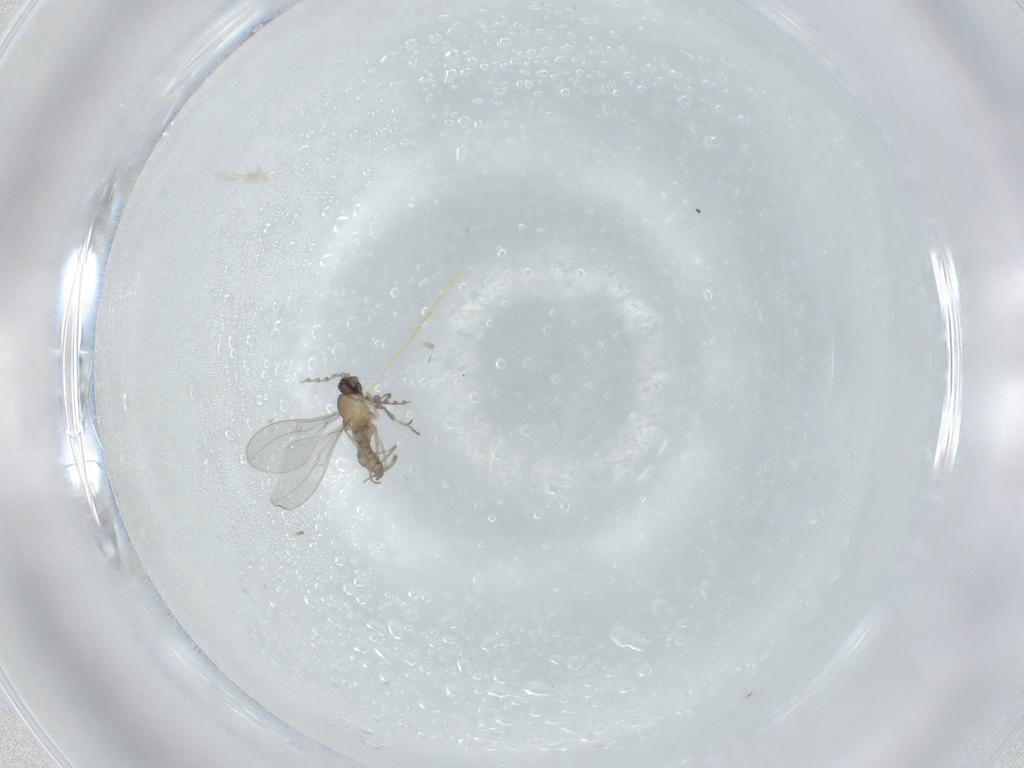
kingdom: Animalia
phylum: Arthropoda
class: Insecta
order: Diptera
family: Cecidomyiidae
